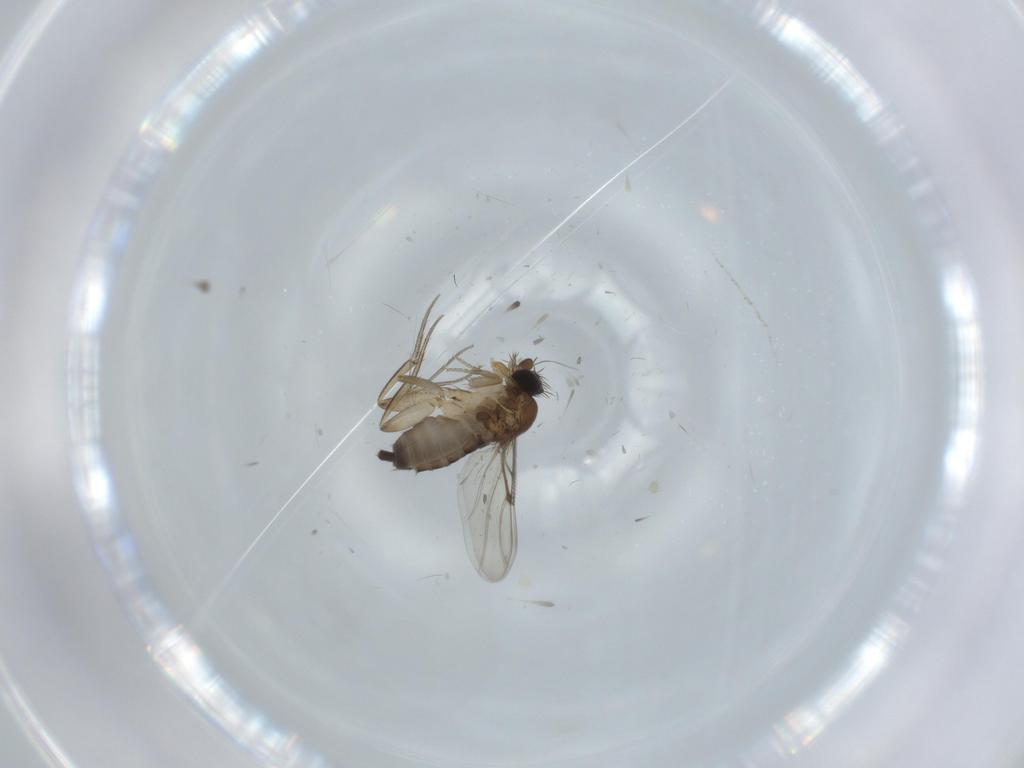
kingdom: Animalia
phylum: Arthropoda
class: Insecta
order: Diptera
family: Phoridae
